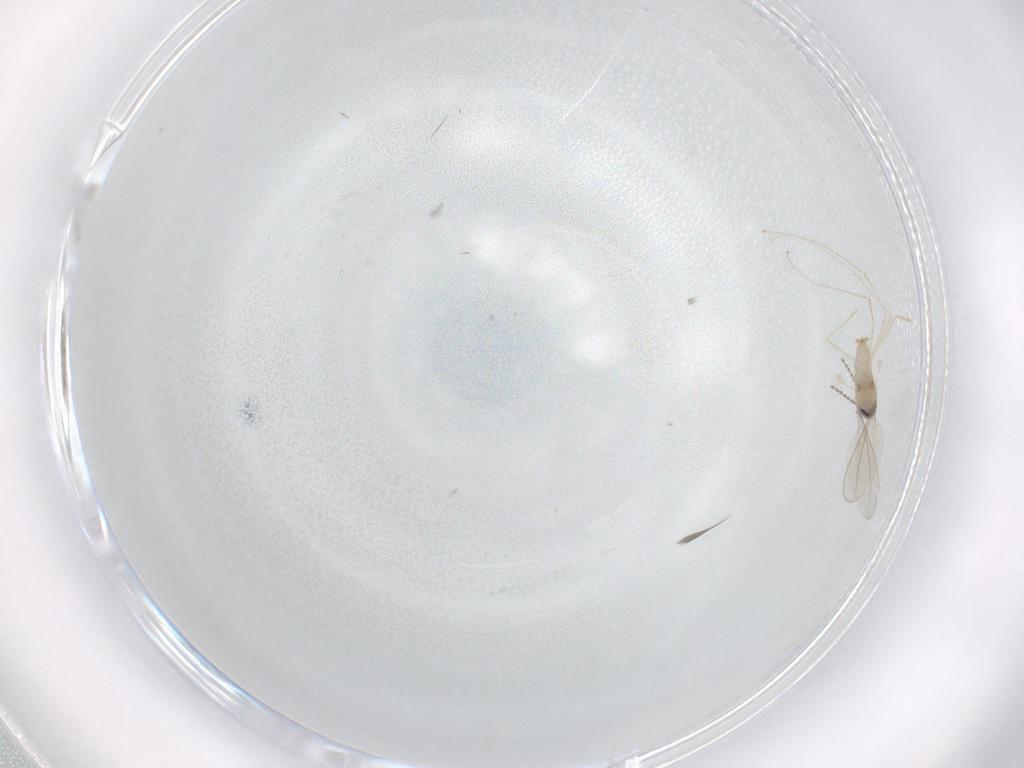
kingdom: Animalia
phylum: Arthropoda
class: Insecta
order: Diptera
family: Cecidomyiidae
